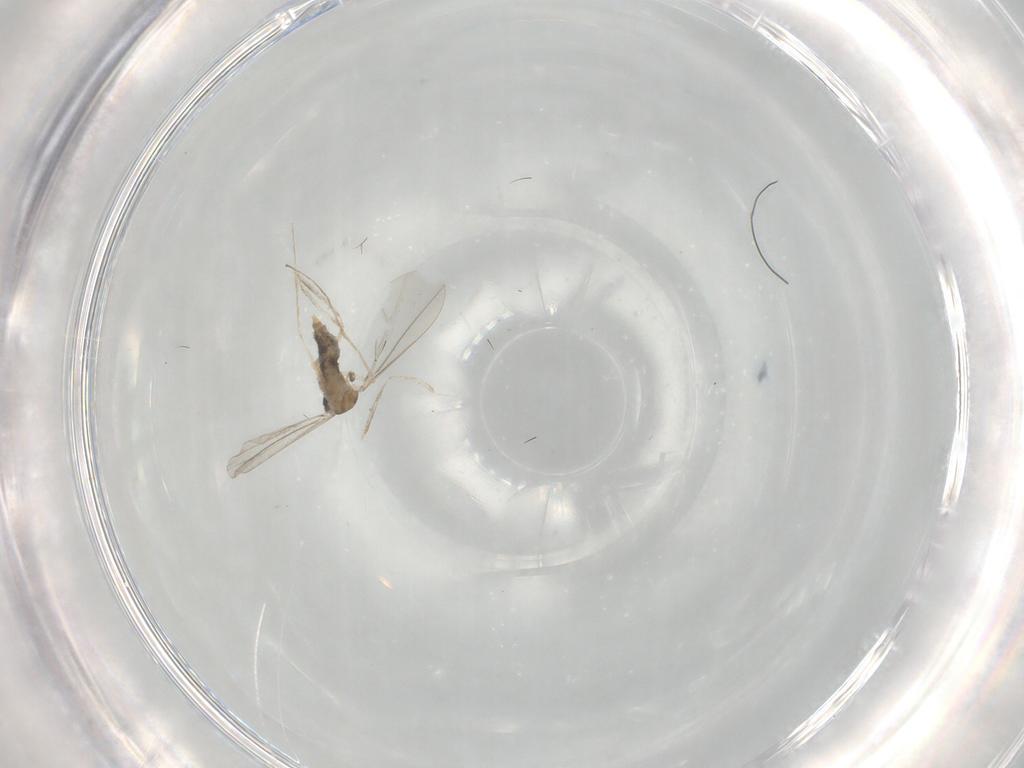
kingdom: Animalia
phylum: Arthropoda
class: Insecta
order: Diptera
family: Cecidomyiidae
